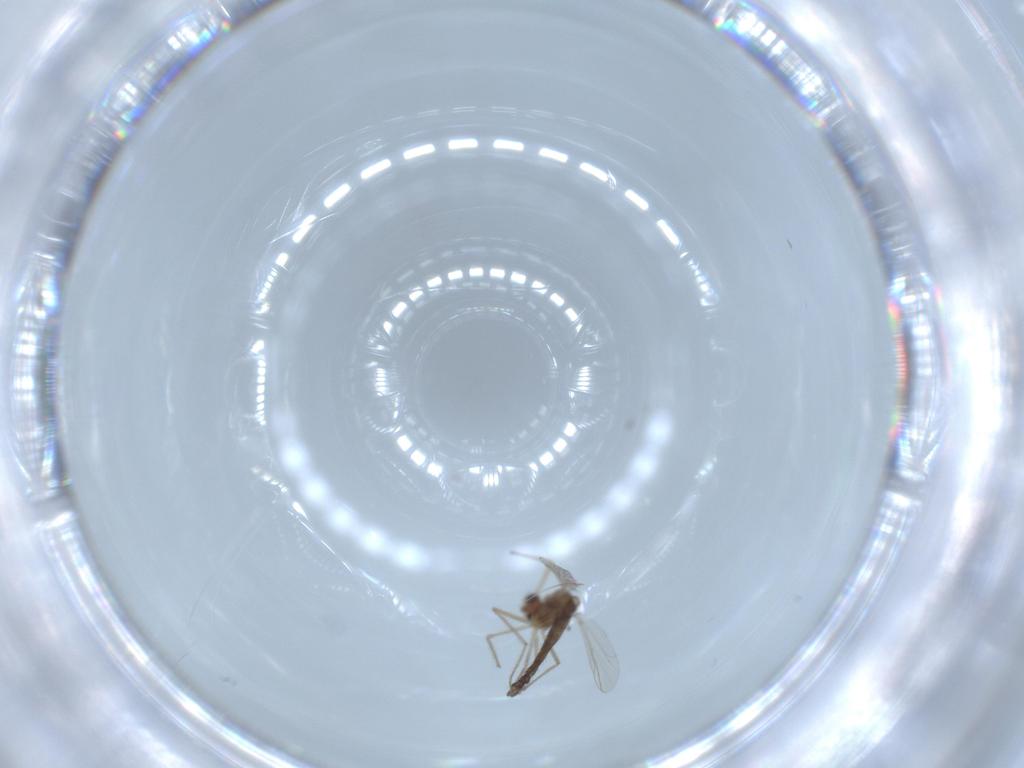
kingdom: Animalia
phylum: Arthropoda
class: Insecta
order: Diptera
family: Chironomidae
